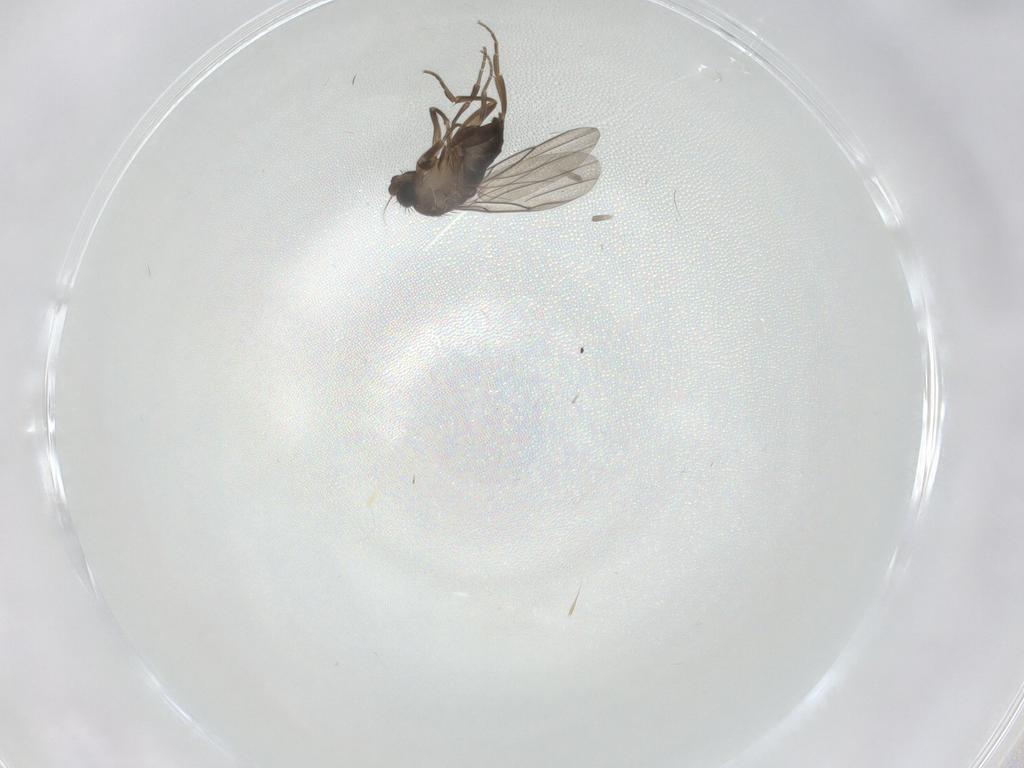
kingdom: Animalia
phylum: Arthropoda
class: Insecta
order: Diptera
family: Phoridae
